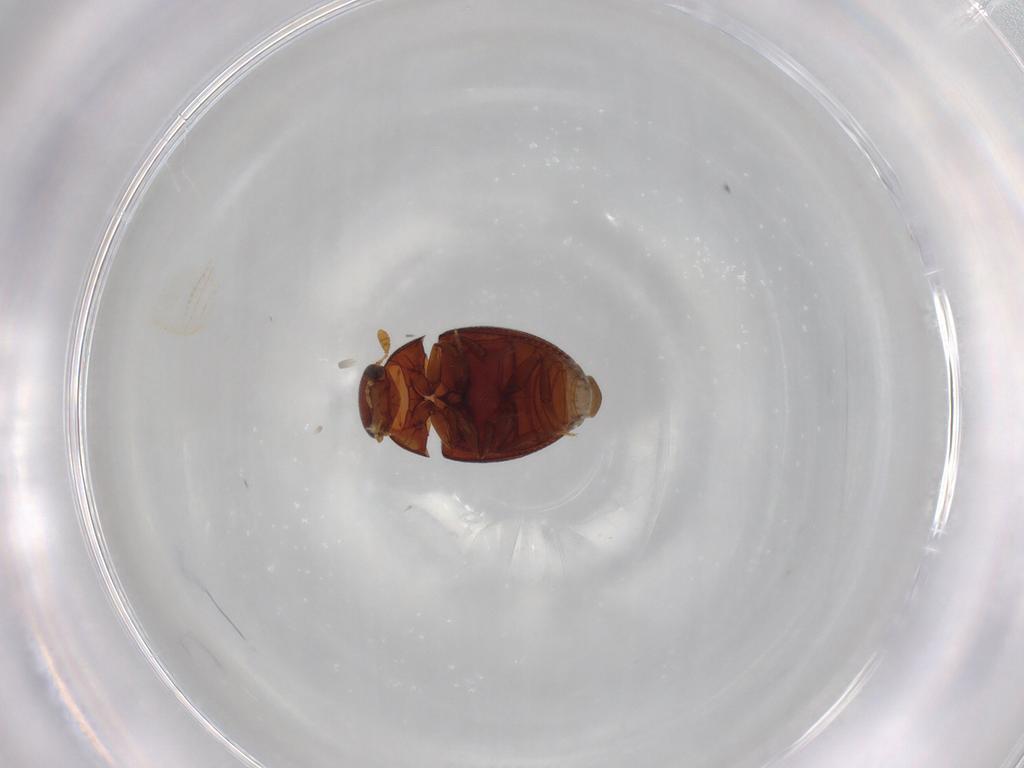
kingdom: Animalia
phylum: Arthropoda
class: Insecta
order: Coleoptera
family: Hydrophilidae
